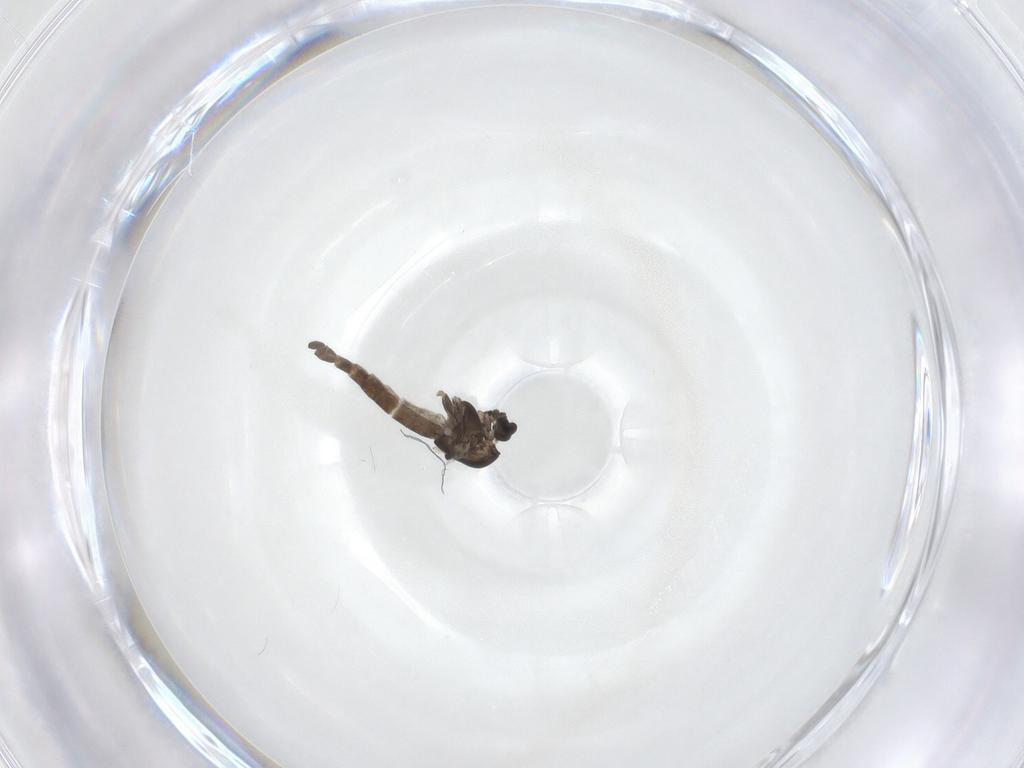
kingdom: Animalia
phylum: Arthropoda
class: Insecta
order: Diptera
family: Chironomidae
